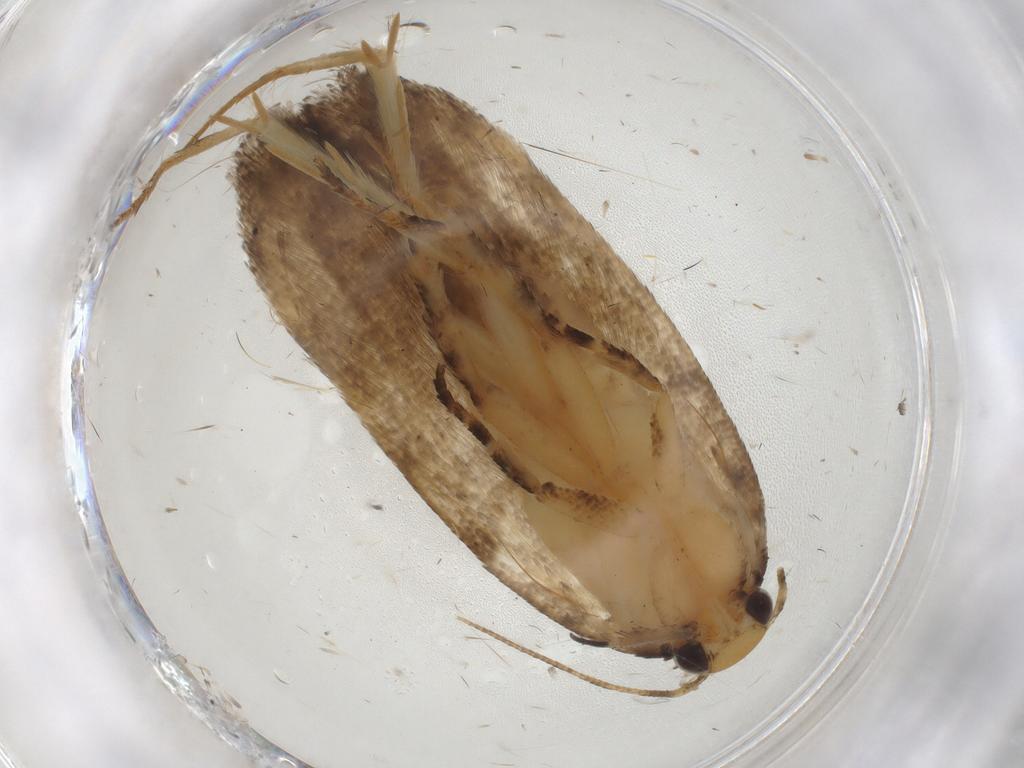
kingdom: Animalia
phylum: Arthropoda
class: Insecta
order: Lepidoptera
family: Gelechiidae
